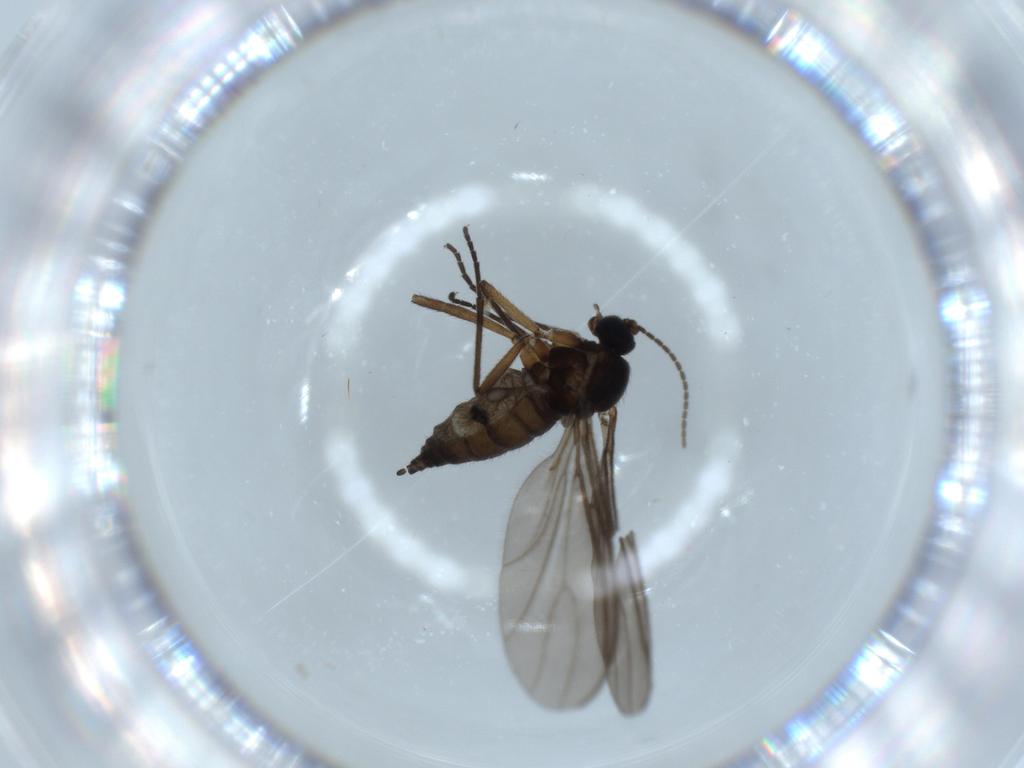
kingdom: Animalia
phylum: Arthropoda
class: Insecta
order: Diptera
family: Sciaridae
